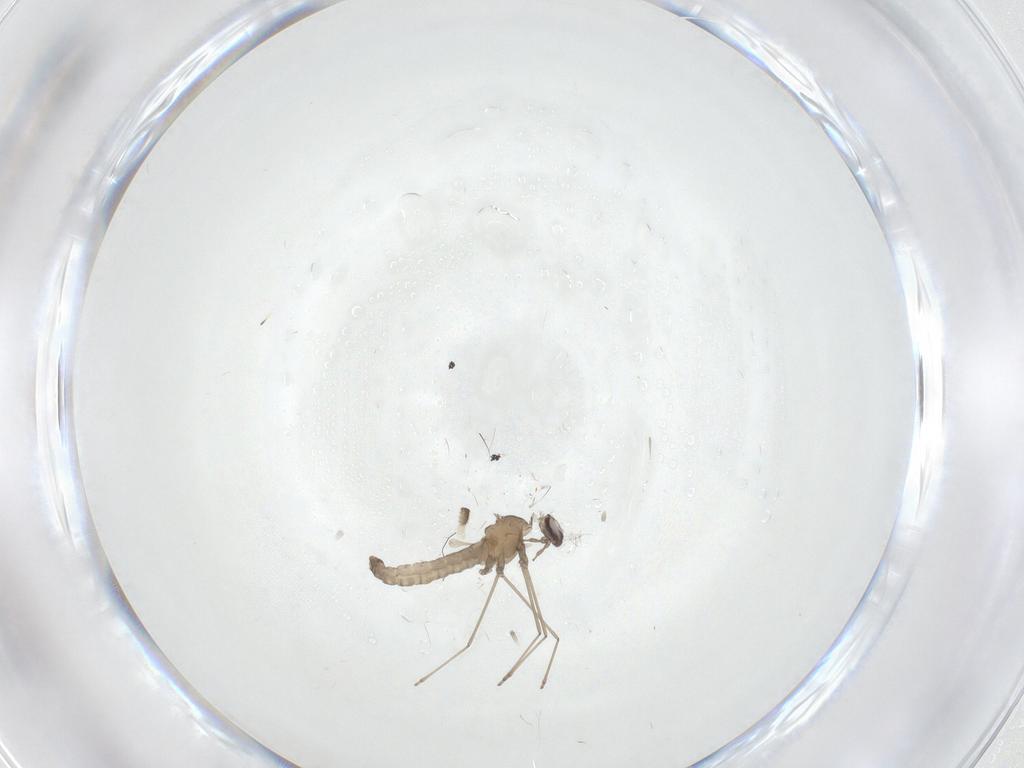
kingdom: Animalia
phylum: Arthropoda
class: Insecta
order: Diptera
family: Cecidomyiidae
